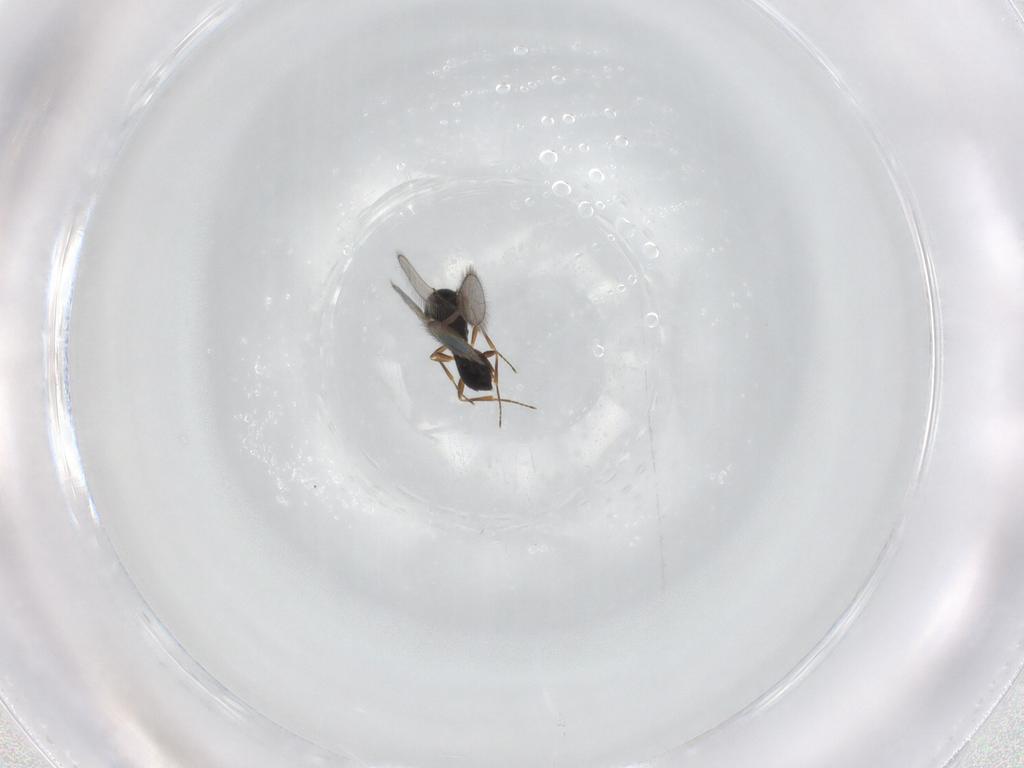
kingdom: Animalia
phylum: Arthropoda
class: Insecta
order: Hymenoptera
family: Scelionidae
